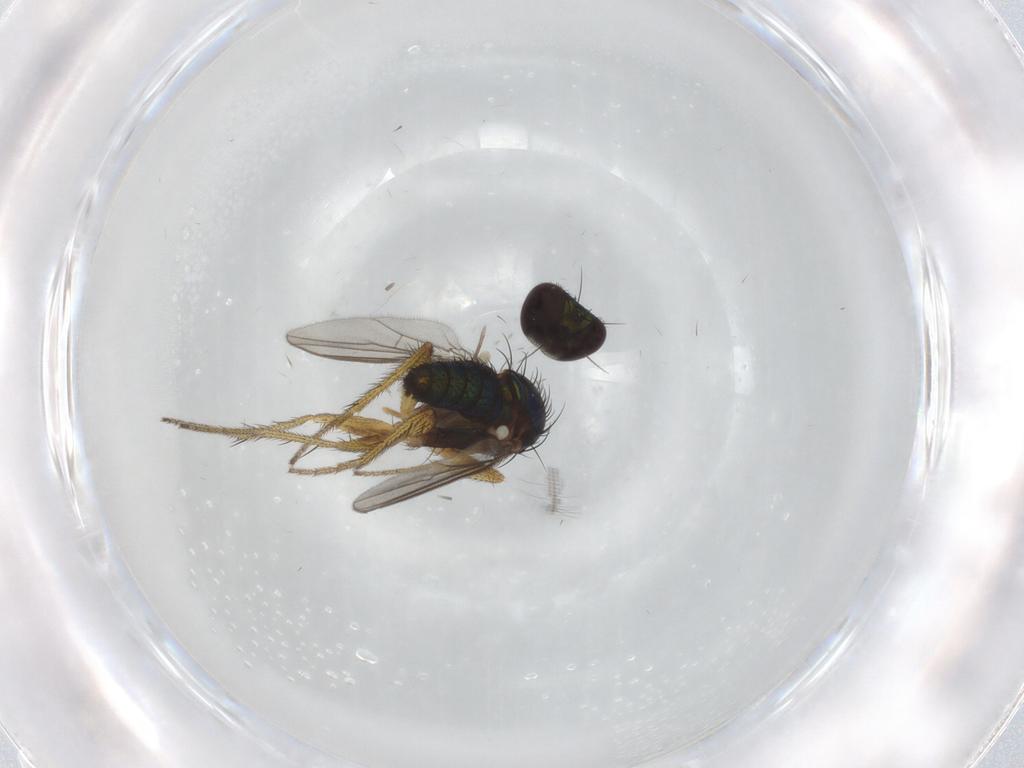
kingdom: Animalia
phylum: Arthropoda
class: Insecta
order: Diptera
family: Dolichopodidae
